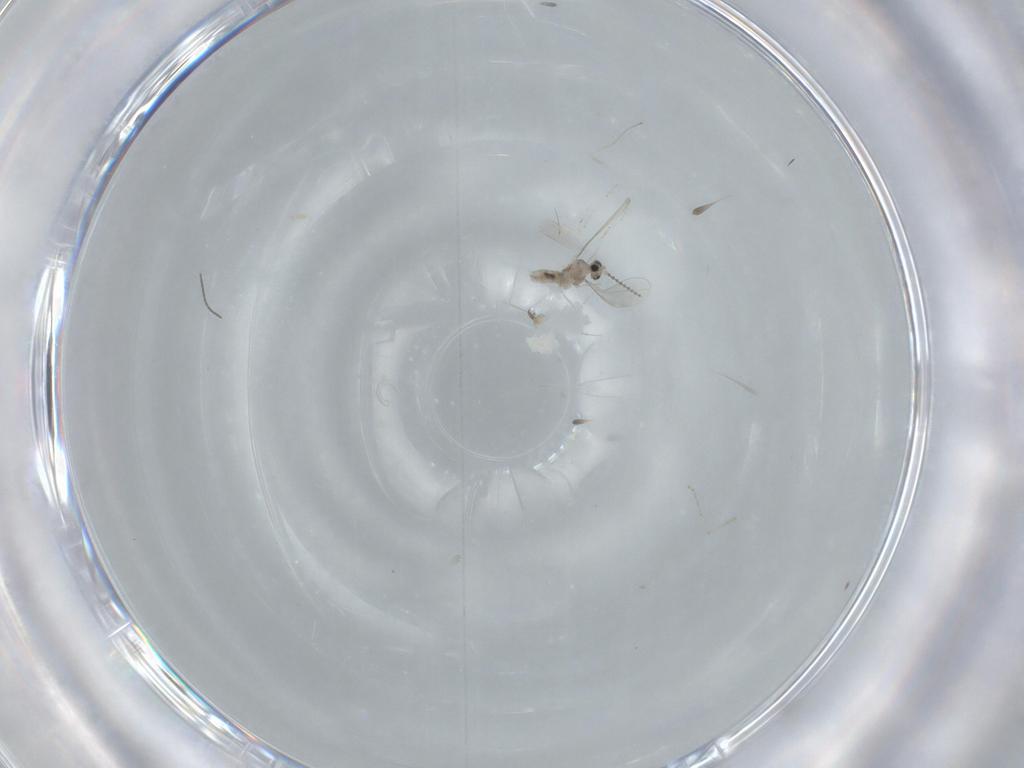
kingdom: Animalia
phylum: Arthropoda
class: Insecta
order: Diptera
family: Cecidomyiidae
